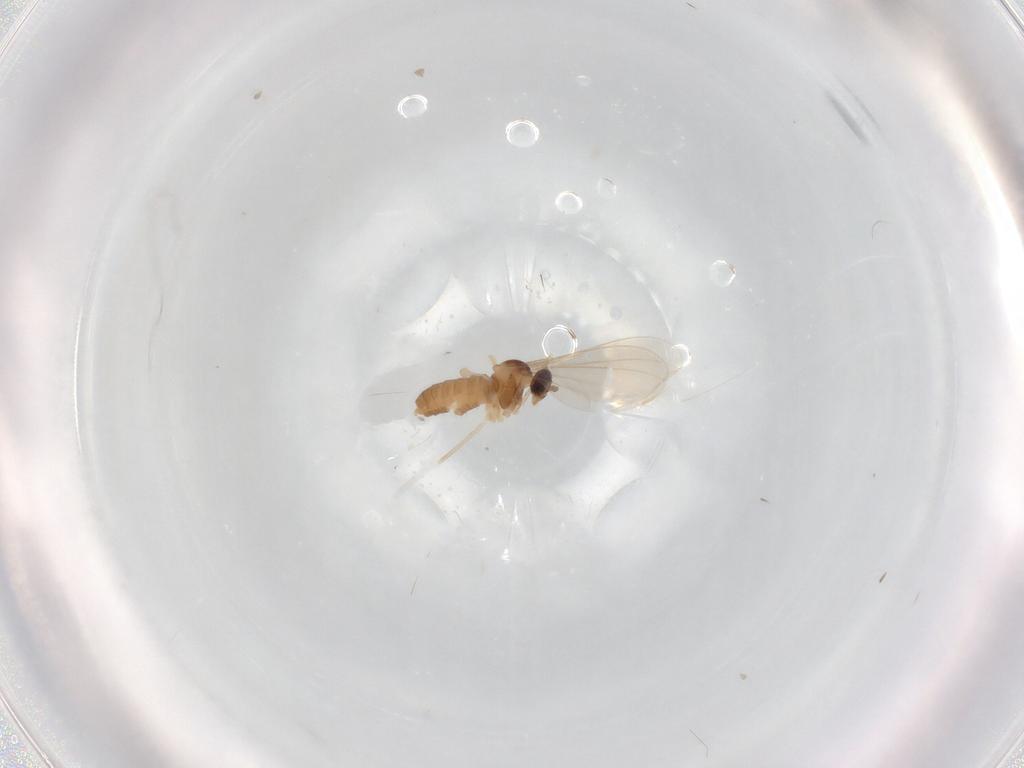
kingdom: Animalia
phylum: Arthropoda
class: Insecta
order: Diptera
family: Cecidomyiidae
